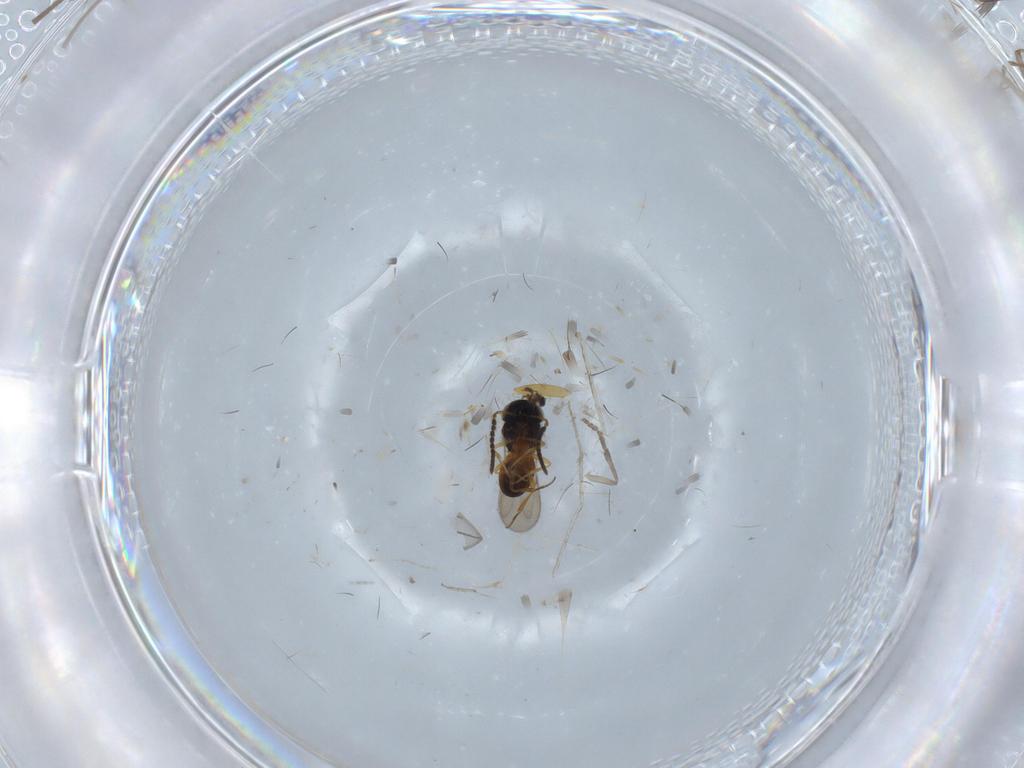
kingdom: Animalia
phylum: Arthropoda
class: Insecta
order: Hymenoptera
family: Scelionidae
